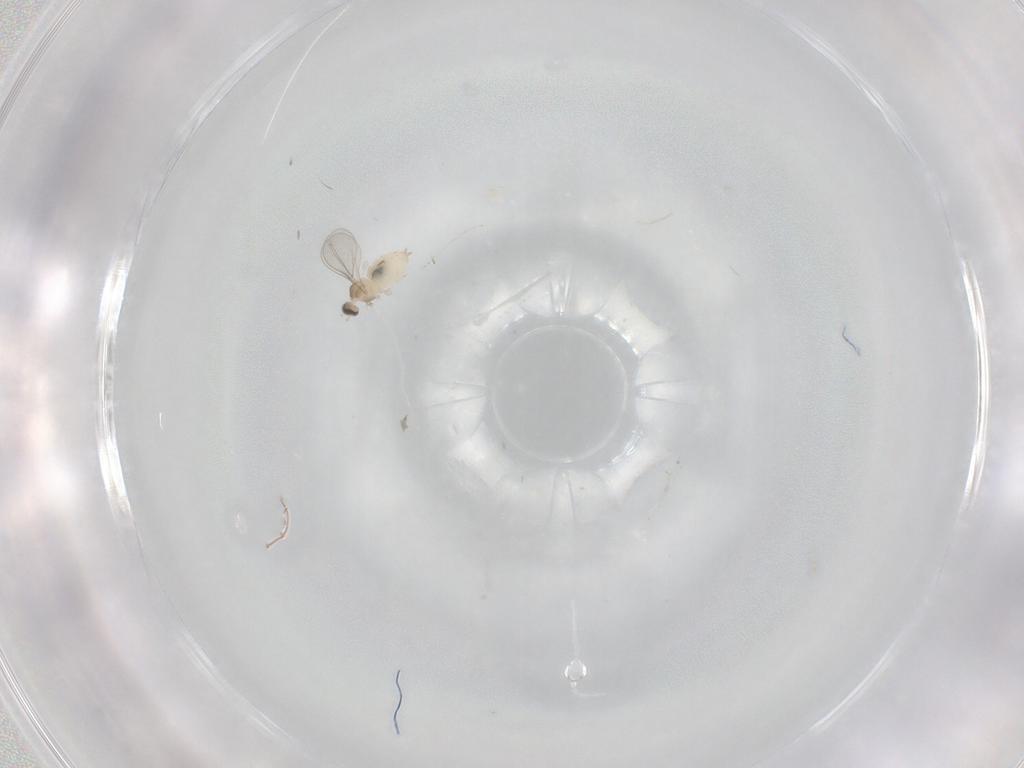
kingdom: Animalia
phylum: Arthropoda
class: Insecta
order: Diptera
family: Cecidomyiidae
